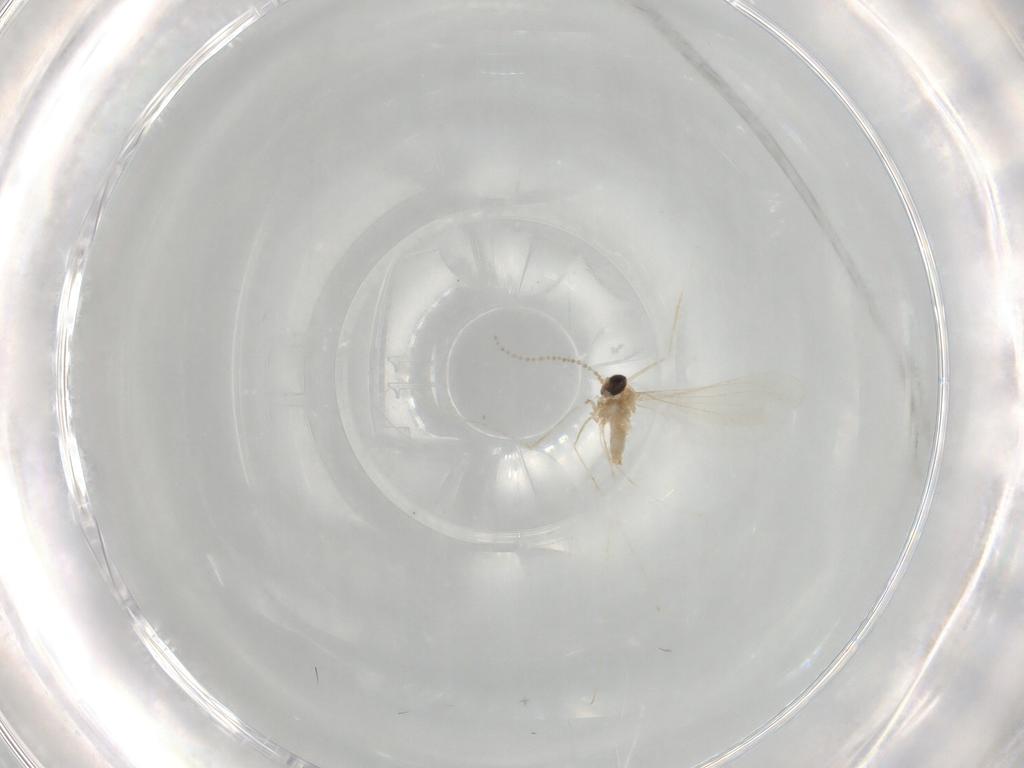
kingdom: Animalia
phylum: Arthropoda
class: Insecta
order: Diptera
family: Cecidomyiidae
